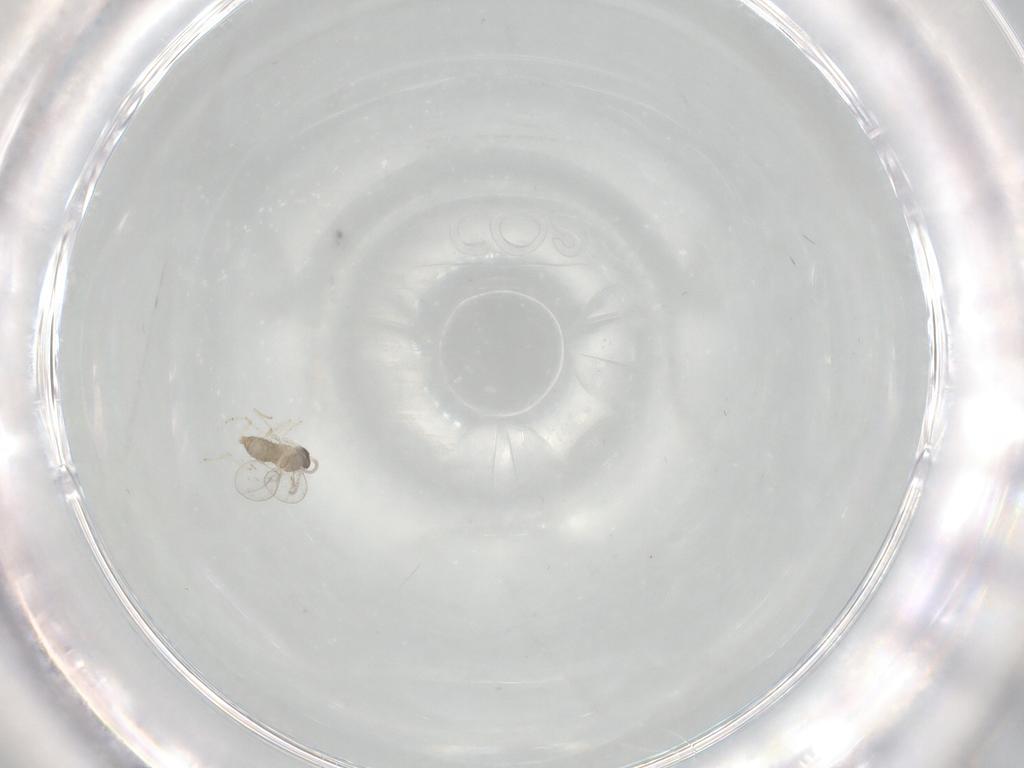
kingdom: Animalia
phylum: Arthropoda
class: Insecta
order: Diptera
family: Cecidomyiidae
